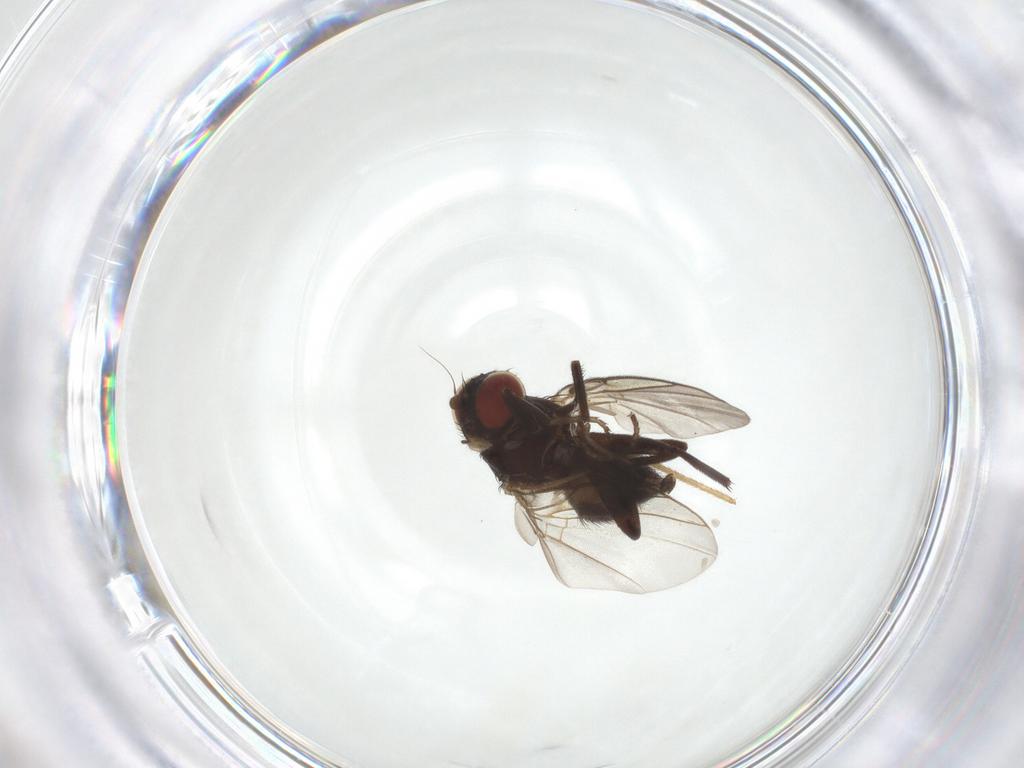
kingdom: Animalia
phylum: Arthropoda
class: Insecta
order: Diptera
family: Agromyzidae
